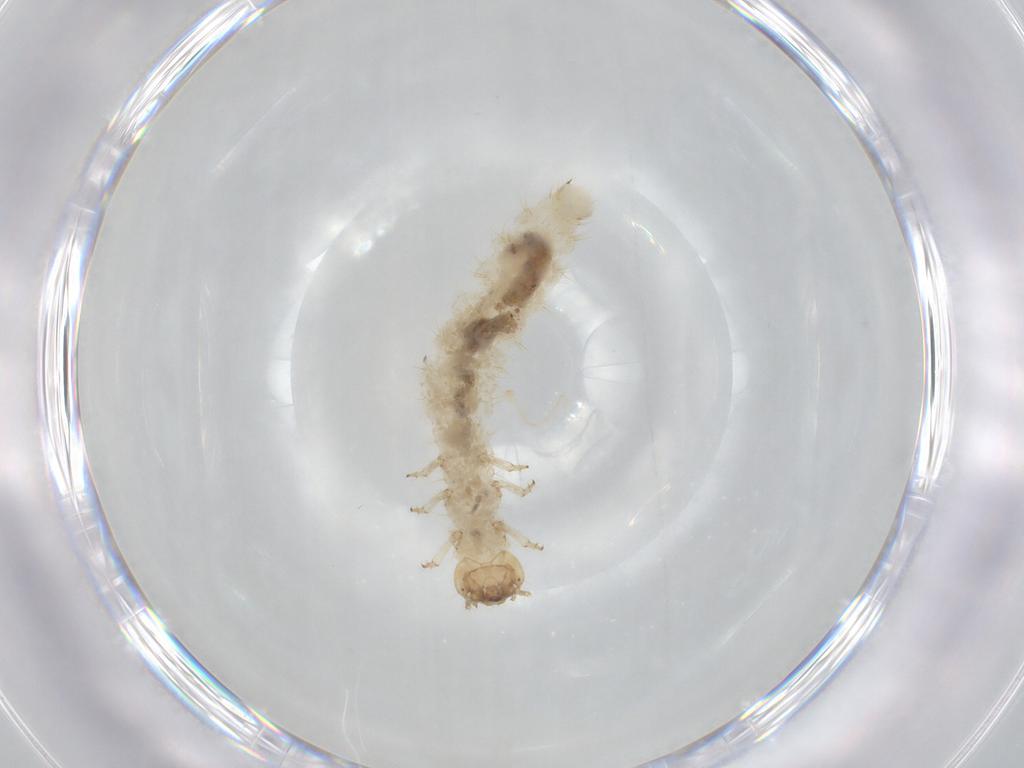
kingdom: Animalia
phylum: Arthropoda
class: Insecta
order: Coleoptera
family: Staphylinidae
